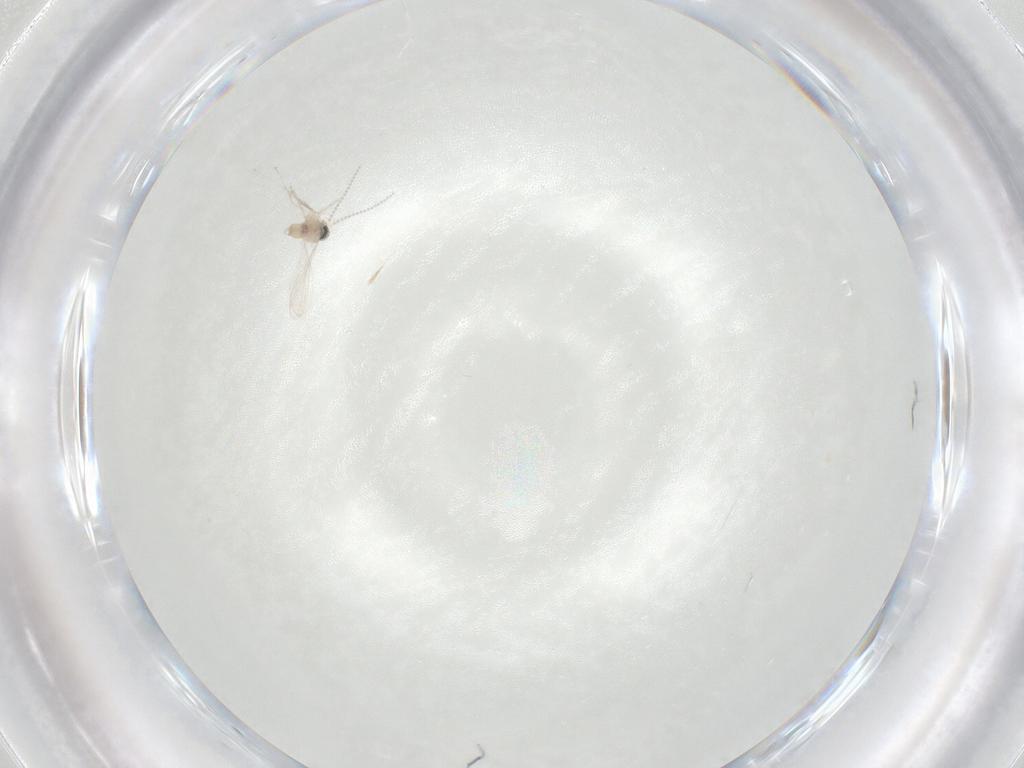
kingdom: Animalia
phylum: Arthropoda
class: Insecta
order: Diptera
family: Cecidomyiidae
